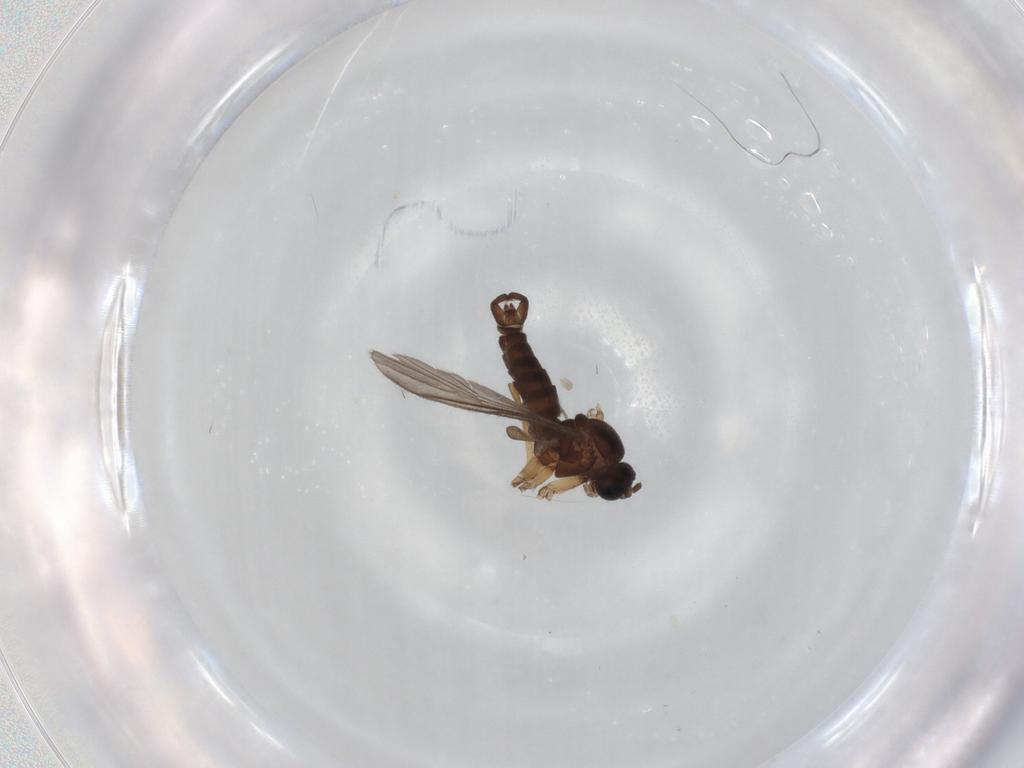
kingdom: Animalia
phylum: Arthropoda
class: Insecta
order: Diptera
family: Sciaridae
